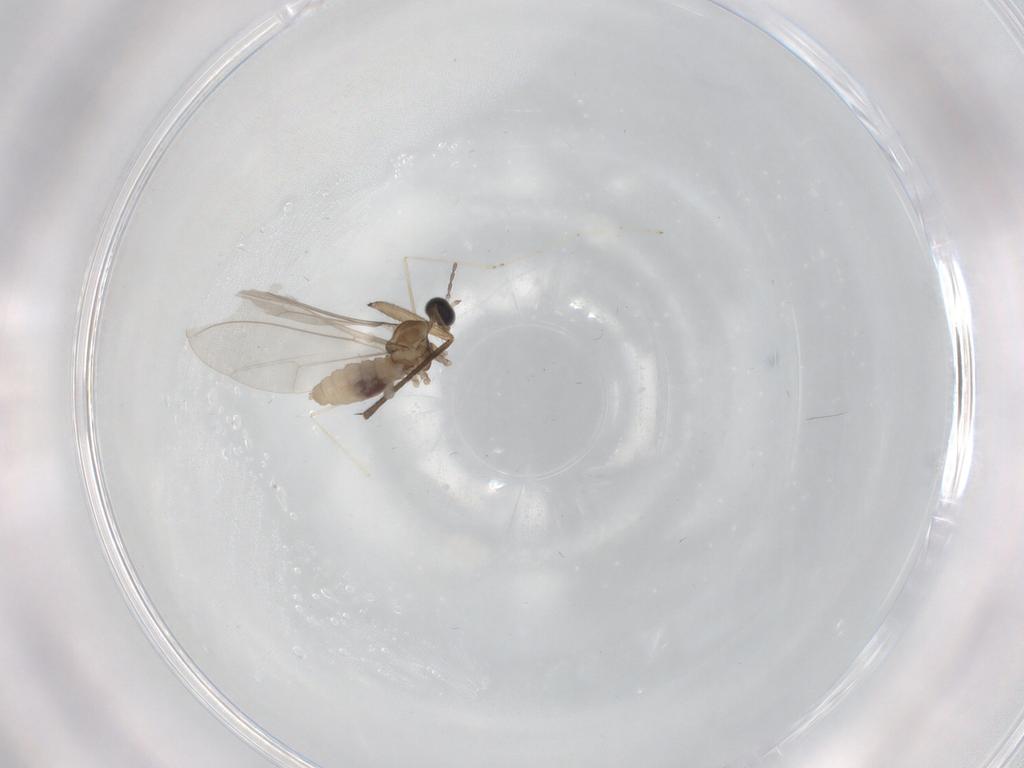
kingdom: Animalia
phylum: Arthropoda
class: Insecta
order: Diptera
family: Cecidomyiidae
